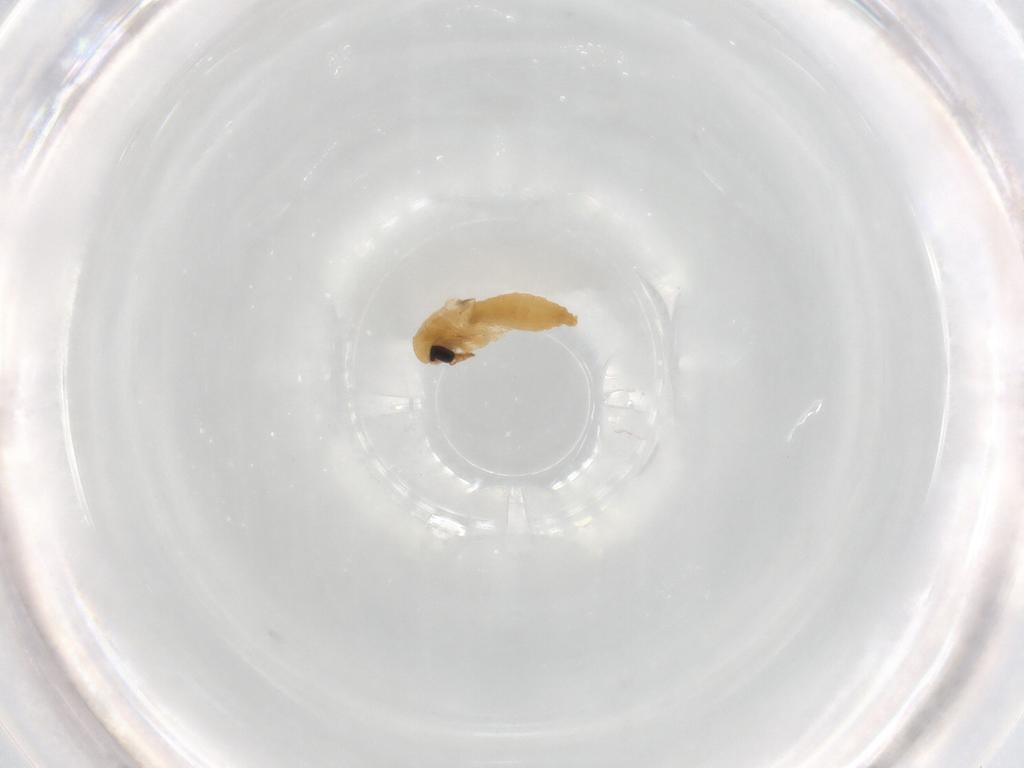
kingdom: Animalia
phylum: Arthropoda
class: Insecta
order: Diptera
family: Chironomidae
